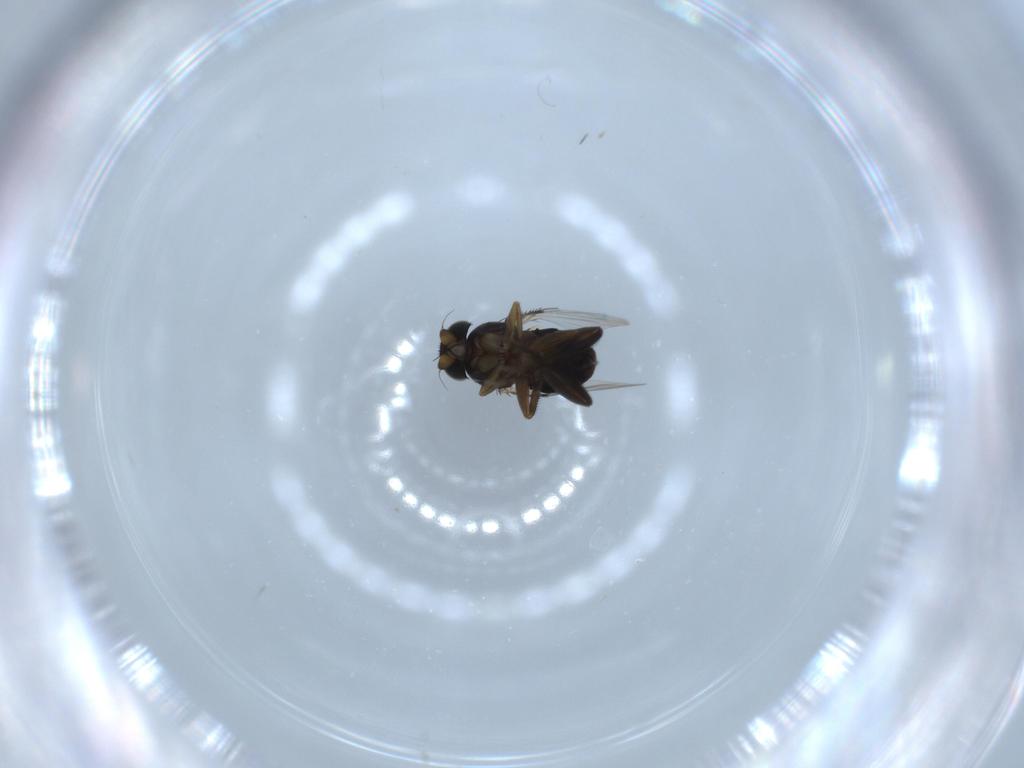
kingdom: Animalia
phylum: Arthropoda
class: Insecta
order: Diptera
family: Phoridae
